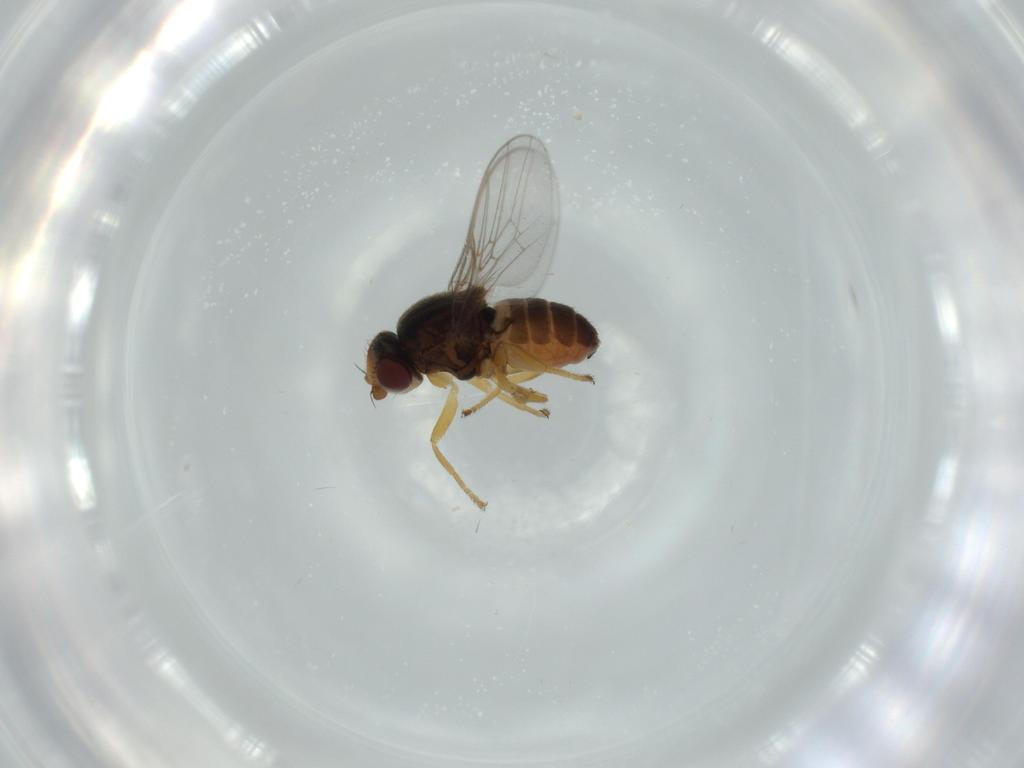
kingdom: Animalia
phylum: Arthropoda
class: Insecta
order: Diptera
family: Chloropidae
